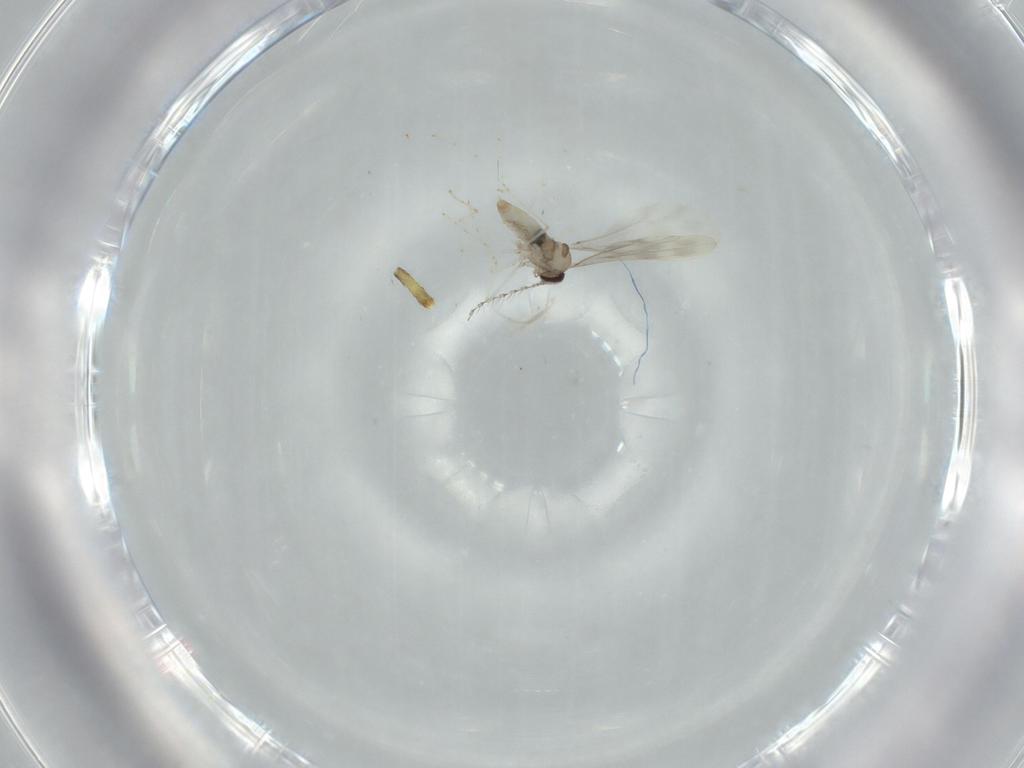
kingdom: Animalia
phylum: Arthropoda
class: Insecta
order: Diptera
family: Cecidomyiidae
